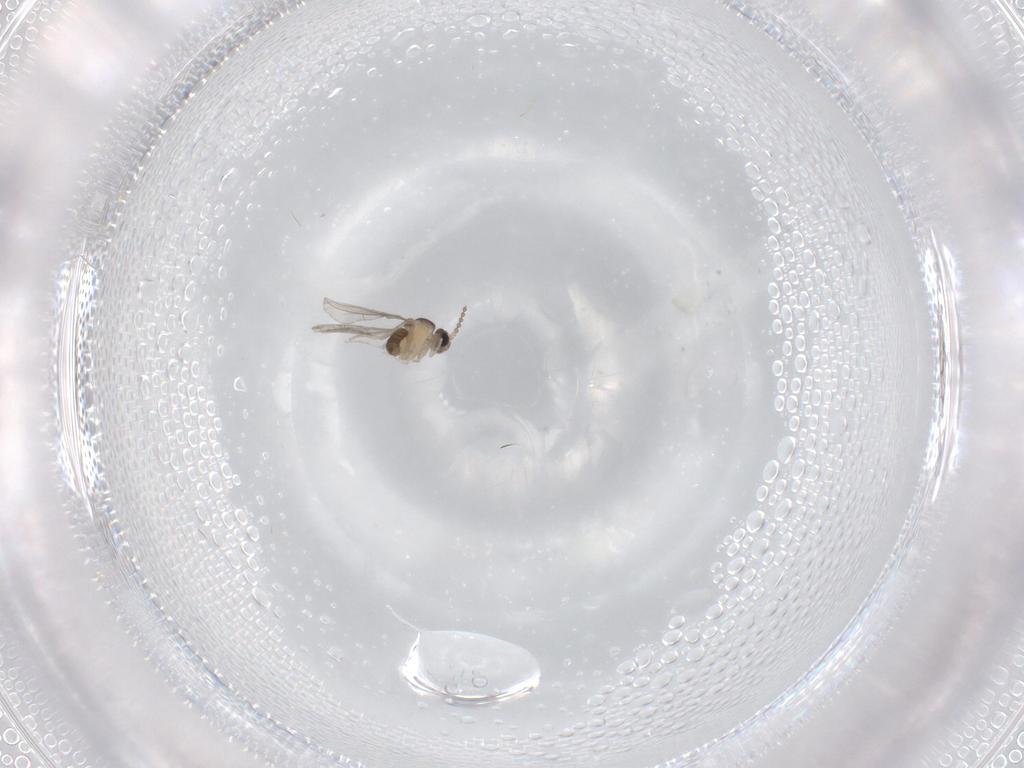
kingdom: Animalia
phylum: Arthropoda
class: Insecta
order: Diptera
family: Cecidomyiidae
